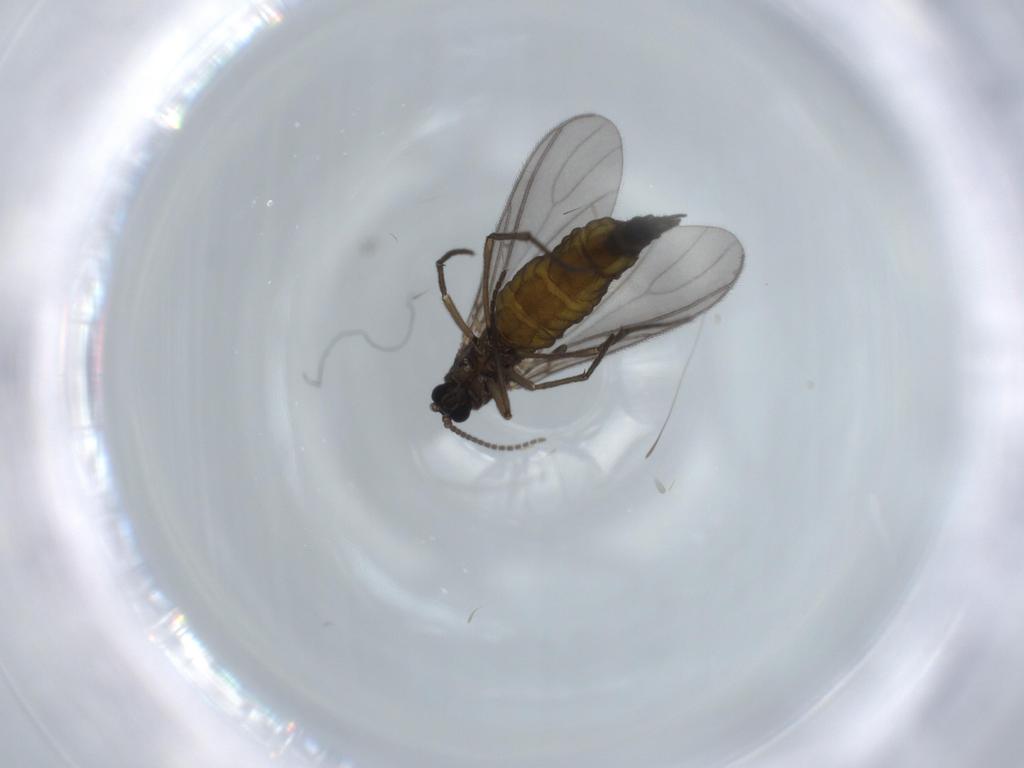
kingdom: Animalia
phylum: Arthropoda
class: Insecta
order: Diptera
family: Sciaridae
